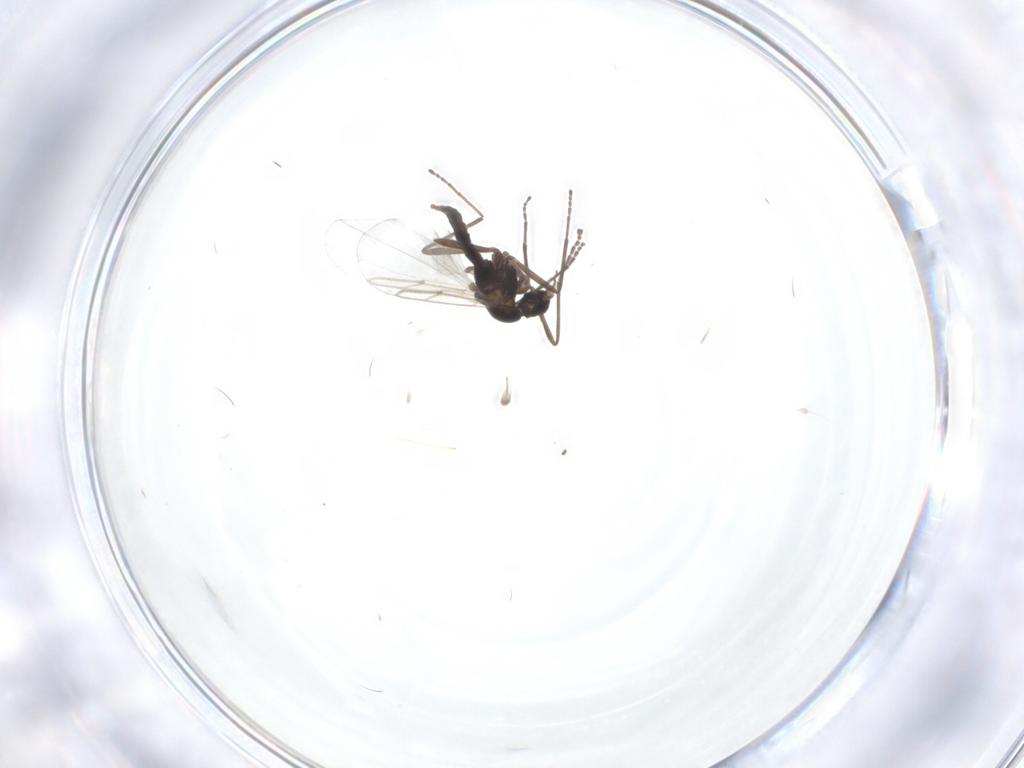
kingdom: Animalia
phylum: Arthropoda
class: Insecta
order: Diptera
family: Cecidomyiidae
